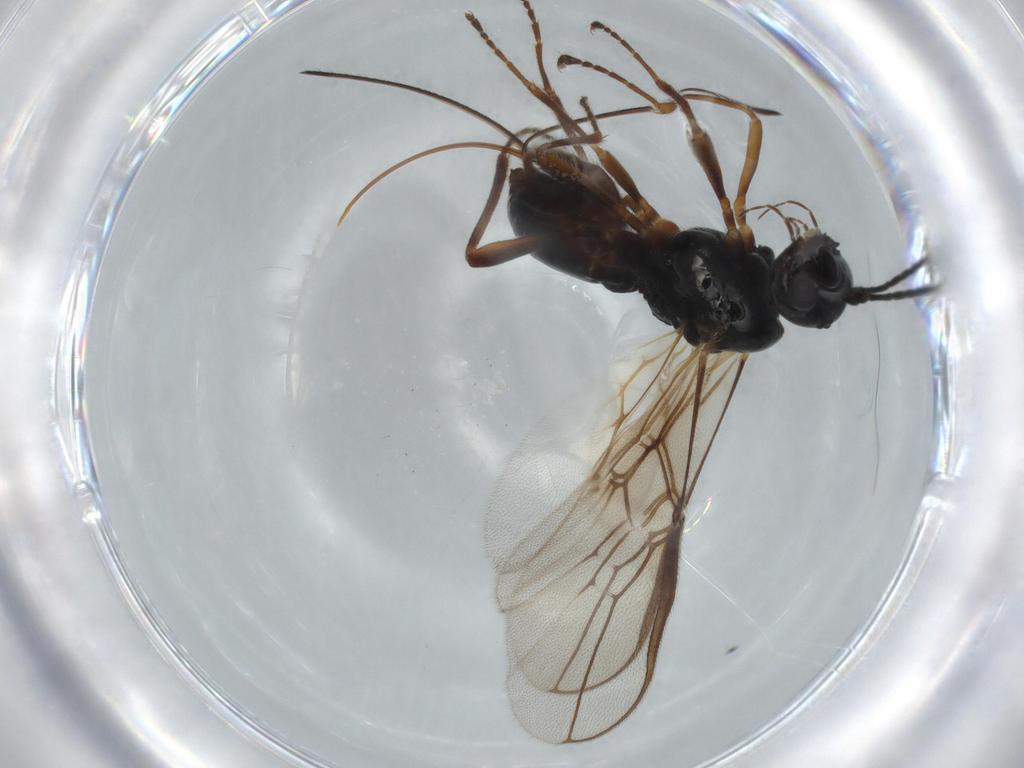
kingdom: Animalia
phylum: Arthropoda
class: Insecta
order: Hymenoptera
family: Braconidae
